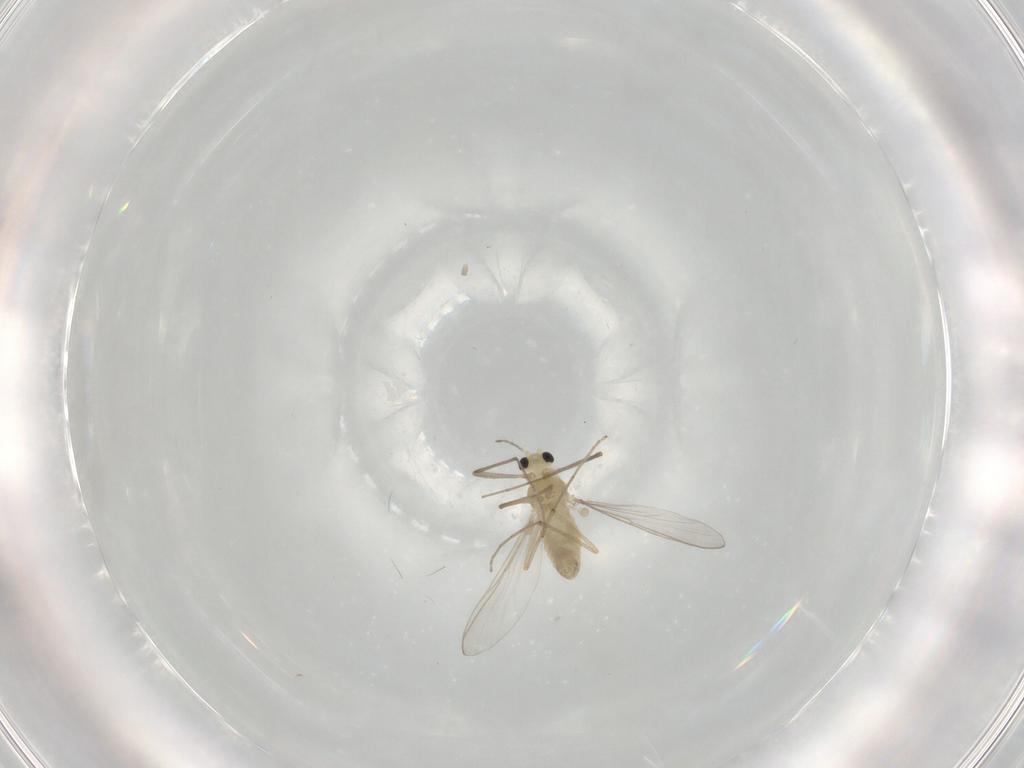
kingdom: Animalia
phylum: Arthropoda
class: Insecta
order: Diptera
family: Chironomidae
